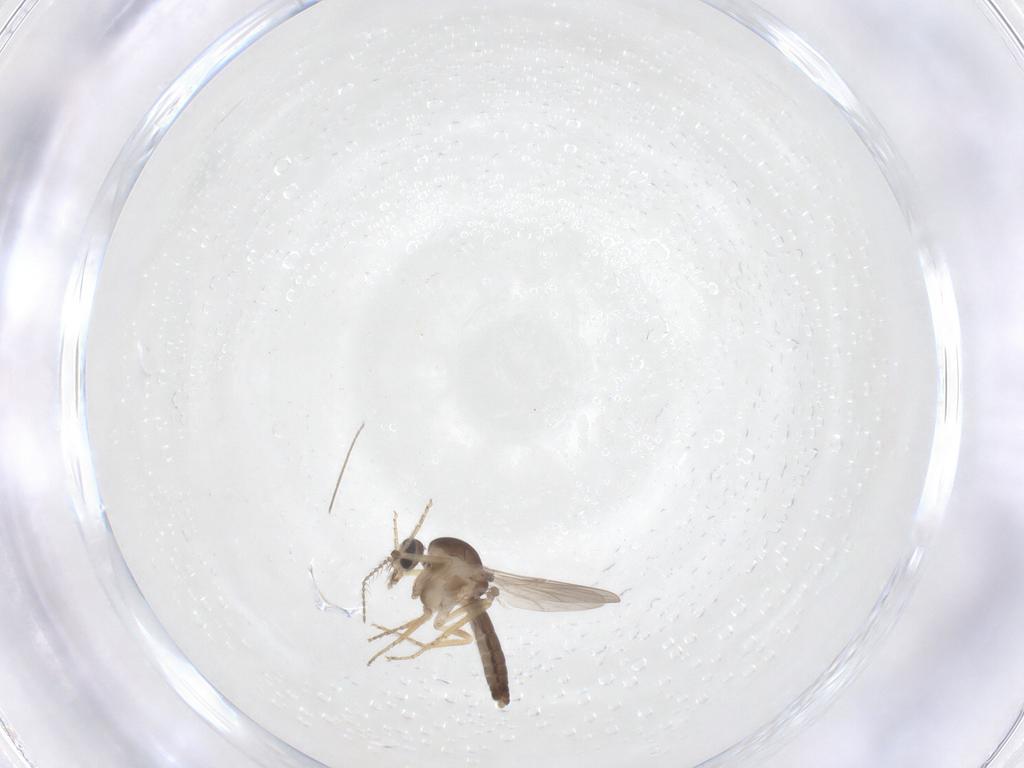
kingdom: Animalia
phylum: Arthropoda
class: Insecta
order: Diptera
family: Ceratopogonidae
